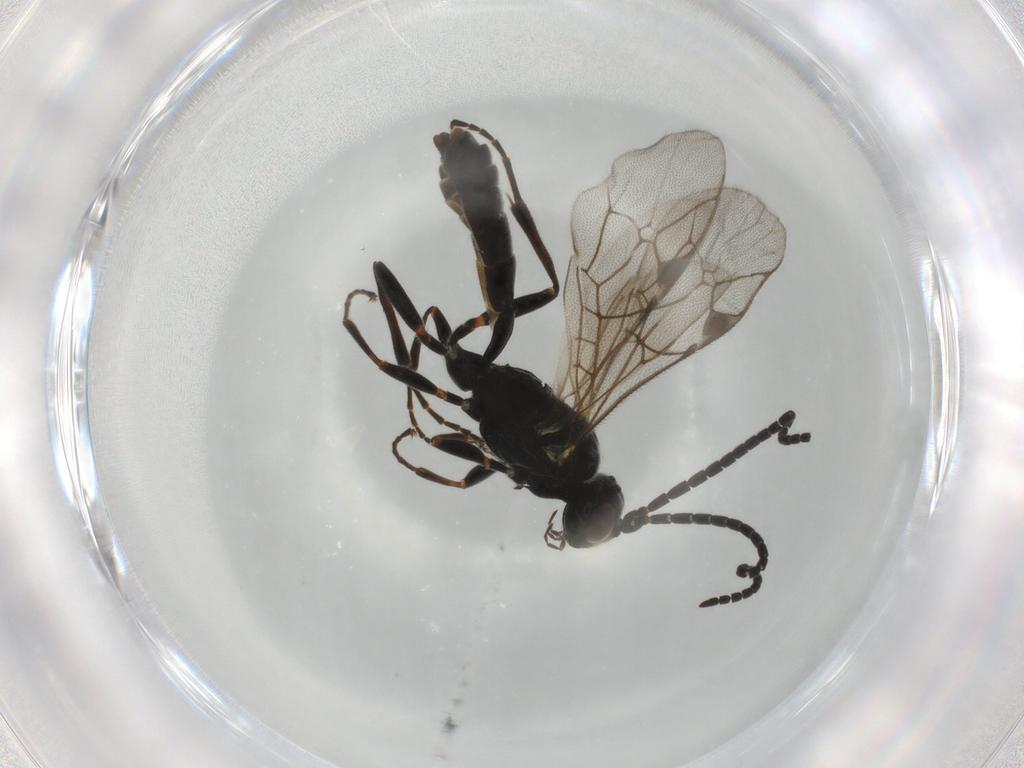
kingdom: Animalia
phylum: Arthropoda
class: Insecta
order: Hymenoptera
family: Ichneumonidae
